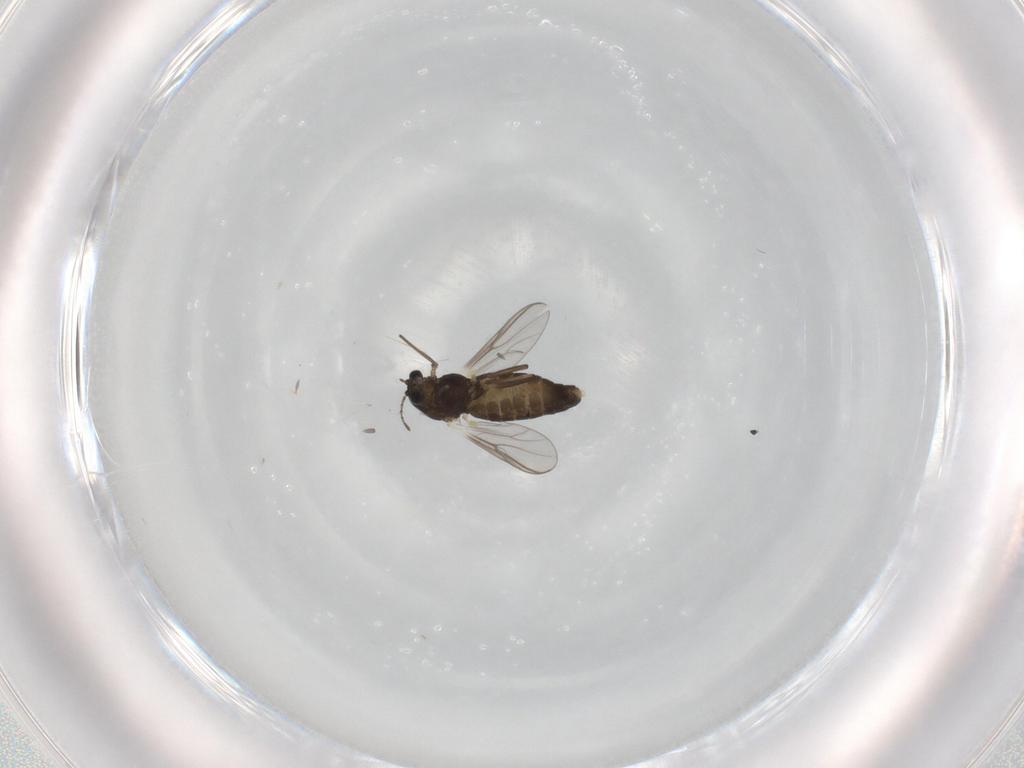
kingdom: Animalia
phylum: Arthropoda
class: Insecta
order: Diptera
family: Chironomidae
